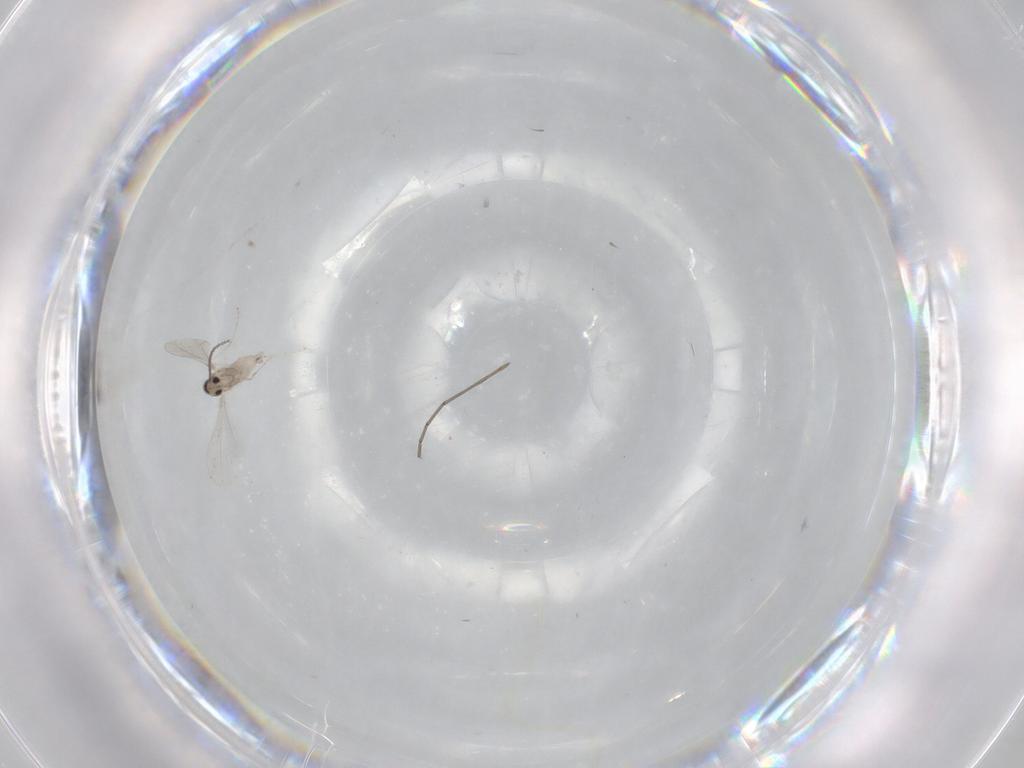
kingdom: Animalia
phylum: Arthropoda
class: Insecta
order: Diptera
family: Cecidomyiidae
